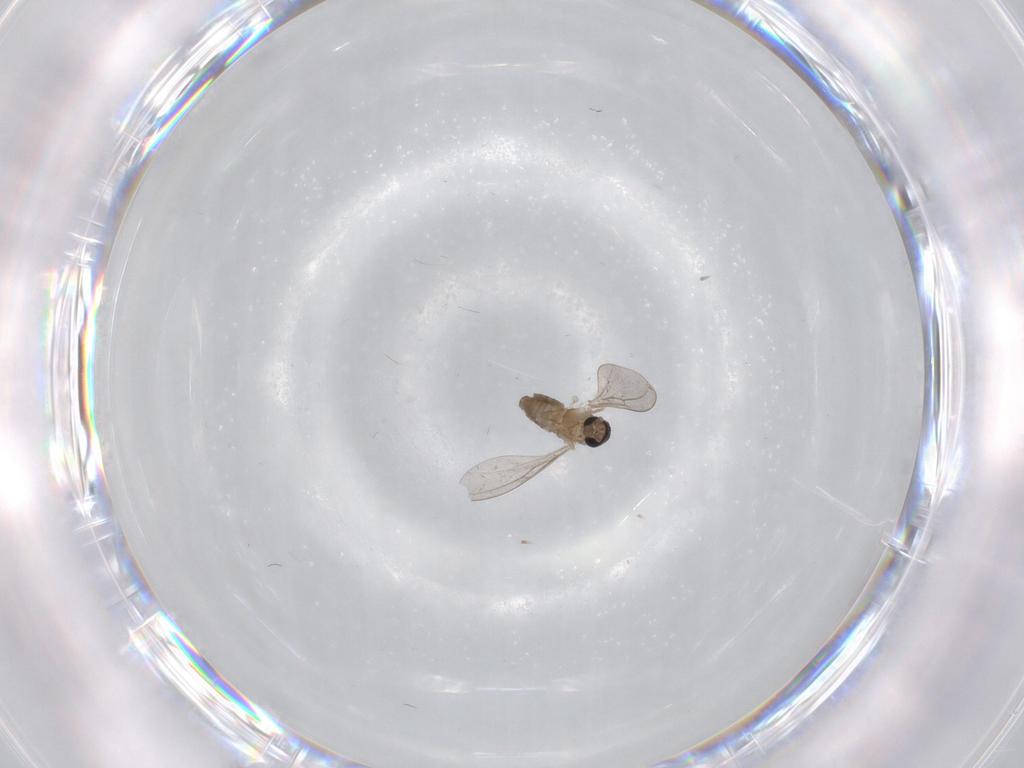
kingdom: Animalia
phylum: Arthropoda
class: Insecta
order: Diptera
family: Cecidomyiidae
